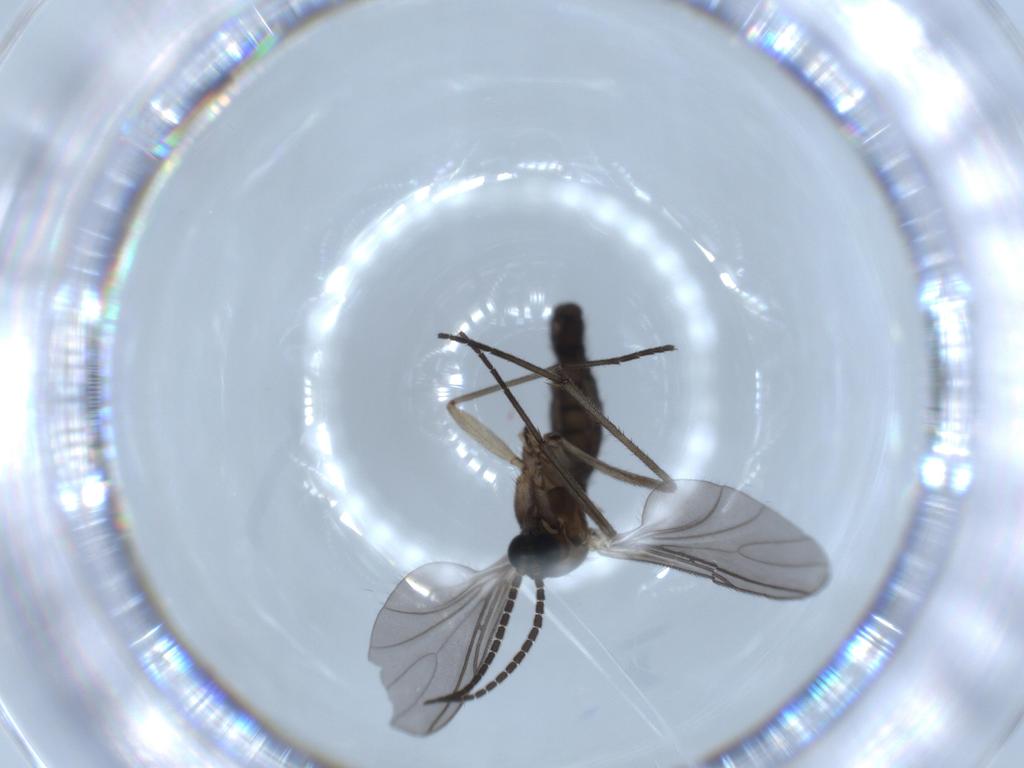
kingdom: Animalia
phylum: Arthropoda
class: Insecta
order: Diptera
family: Sciaridae
